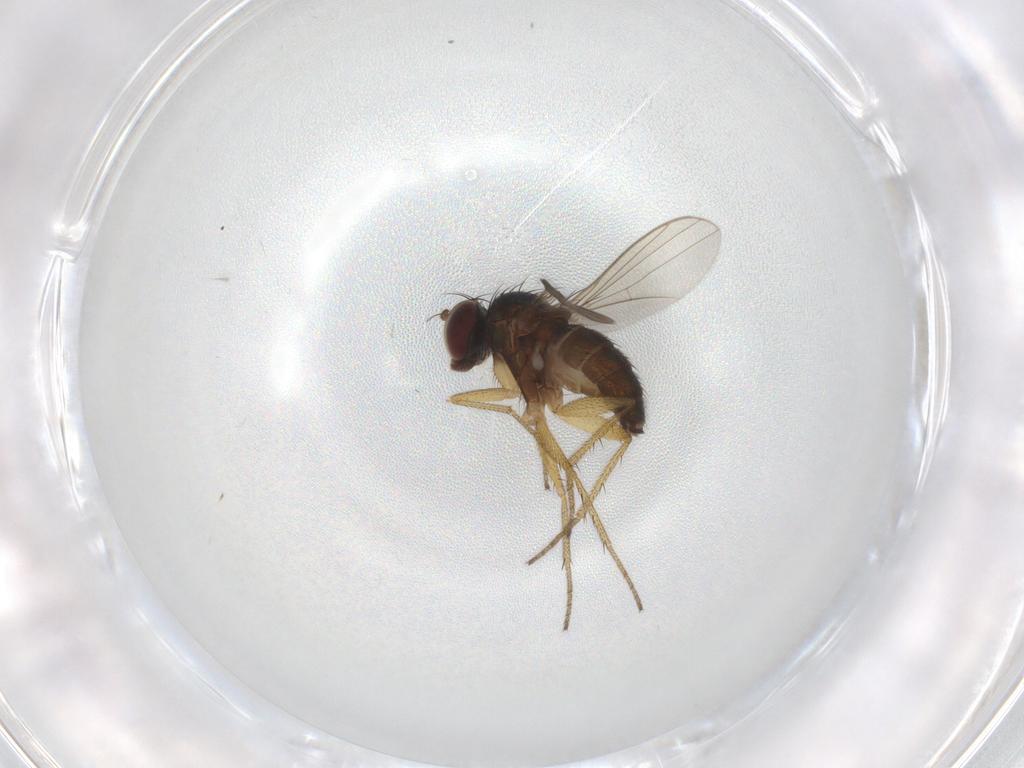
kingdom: Animalia
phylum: Arthropoda
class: Insecta
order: Diptera
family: Dolichopodidae
